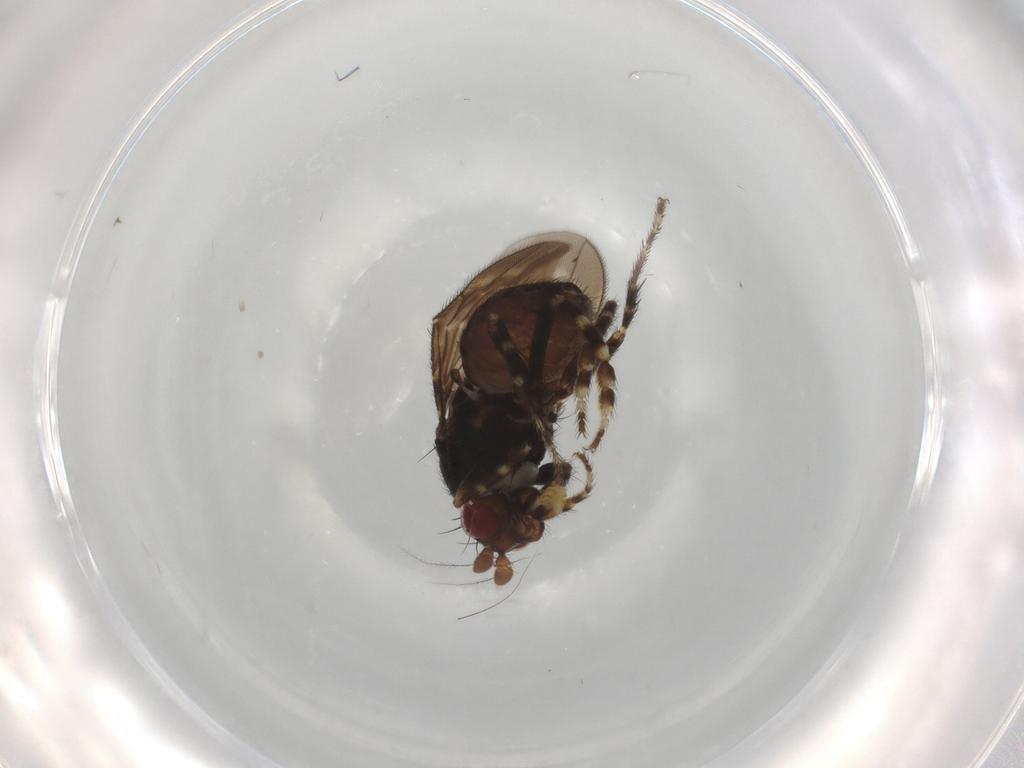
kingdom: Animalia
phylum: Arthropoda
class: Insecta
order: Diptera
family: Sphaeroceridae
